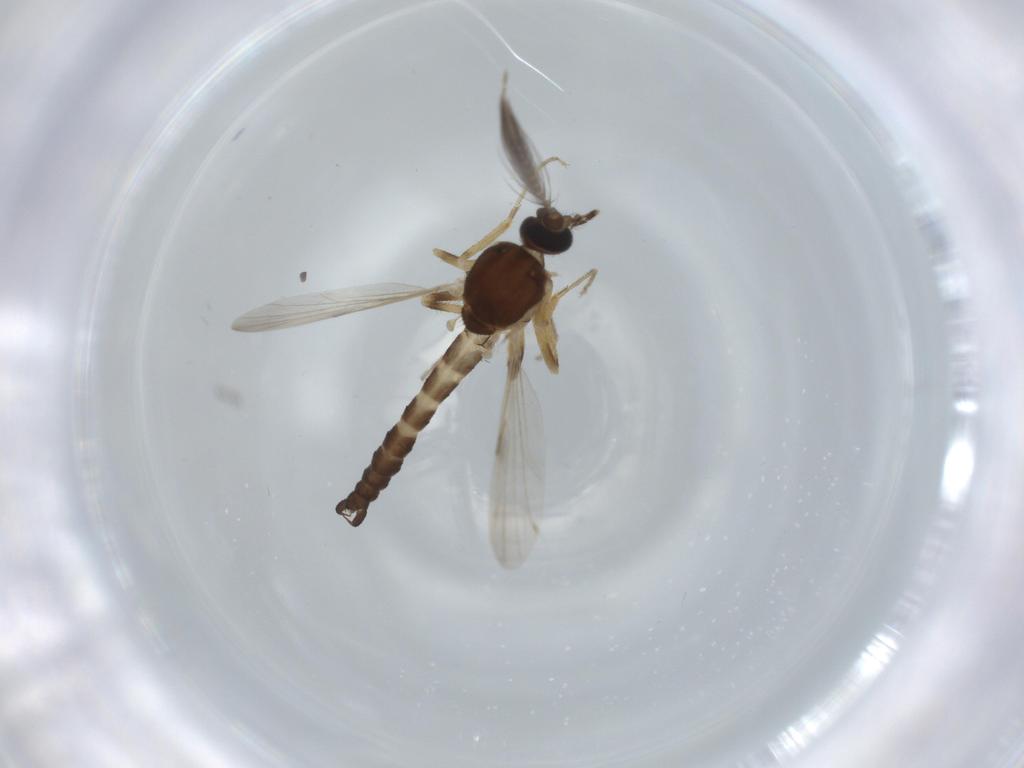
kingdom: Animalia
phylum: Arthropoda
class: Insecta
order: Diptera
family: Ceratopogonidae
